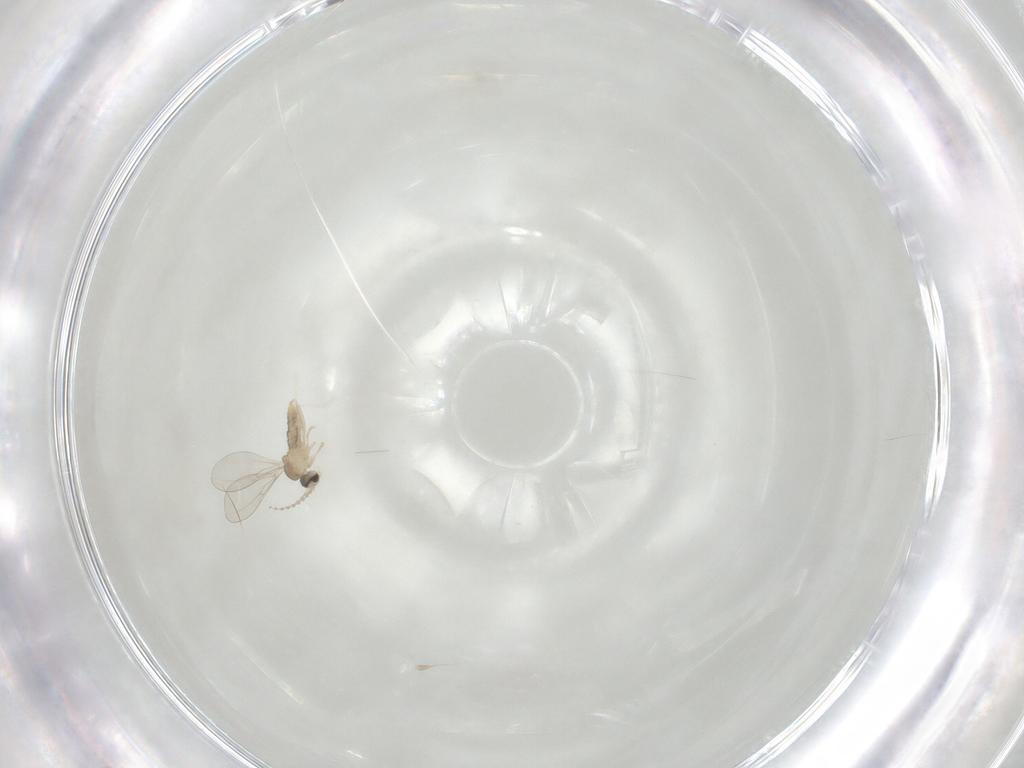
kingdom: Animalia
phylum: Arthropoda
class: Insecta
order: Diptera
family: Cecidomyiidae
